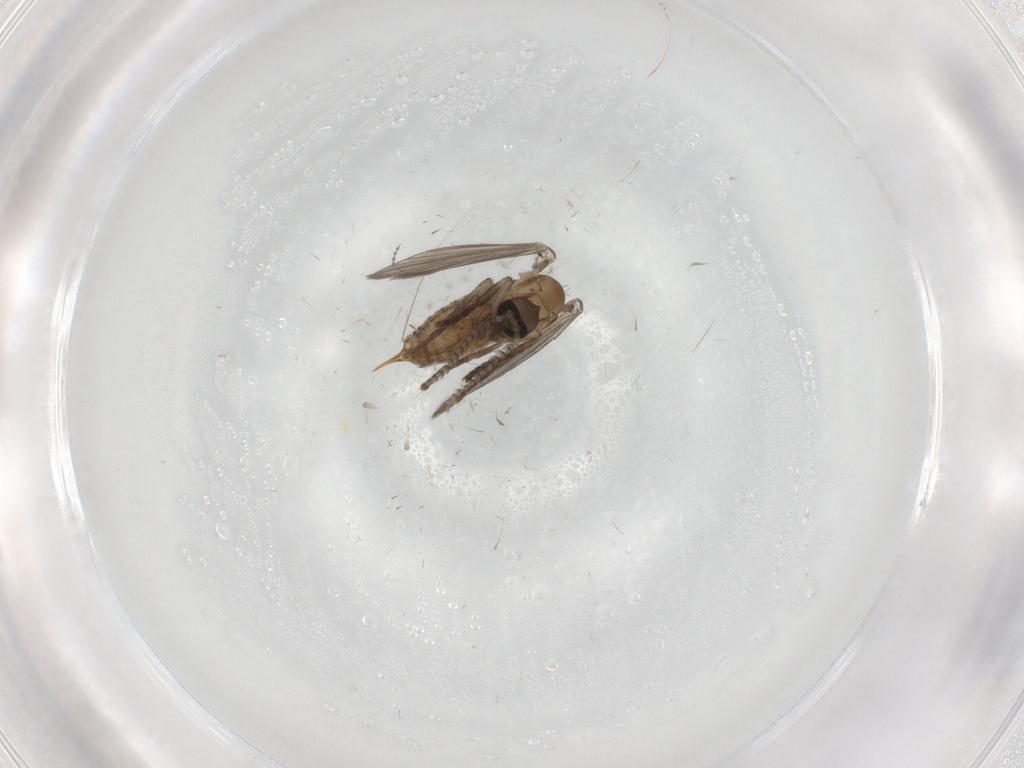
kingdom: Animalia
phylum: Arthropoda
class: Insecta
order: Diptera
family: Psychodidae
